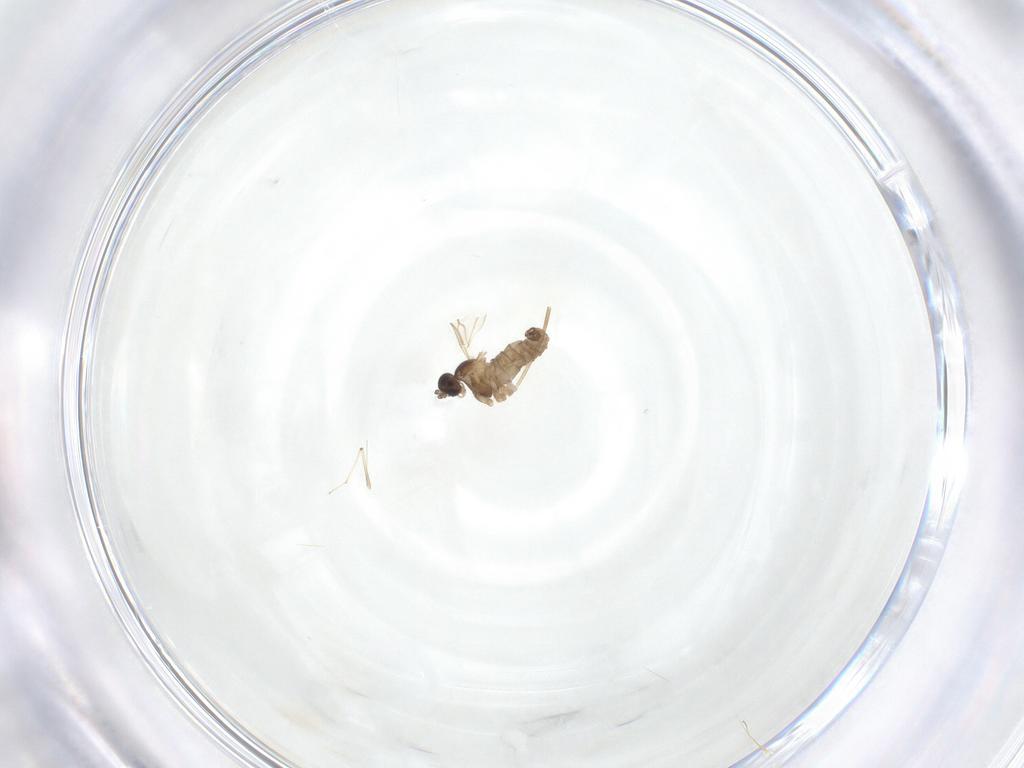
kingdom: Animalia
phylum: Arthropoda
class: Insecta
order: Diptera
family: Chironomidae
